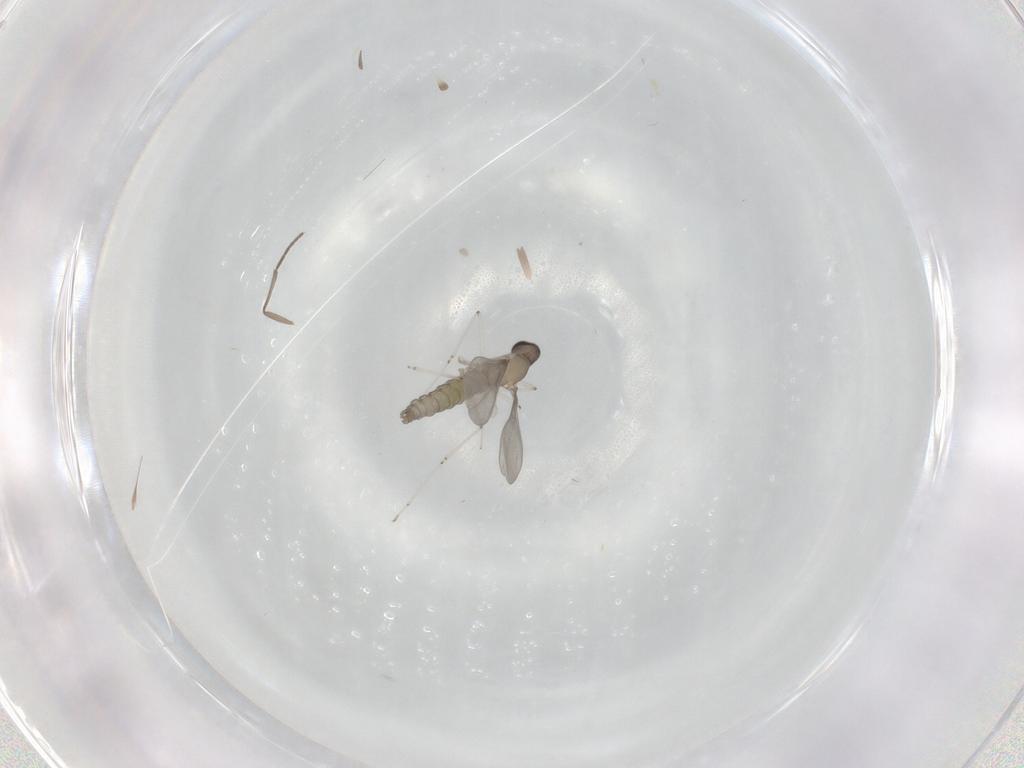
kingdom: Animalia
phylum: Arthropoda
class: Insecta
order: Diptera
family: Cecidomyiidae
